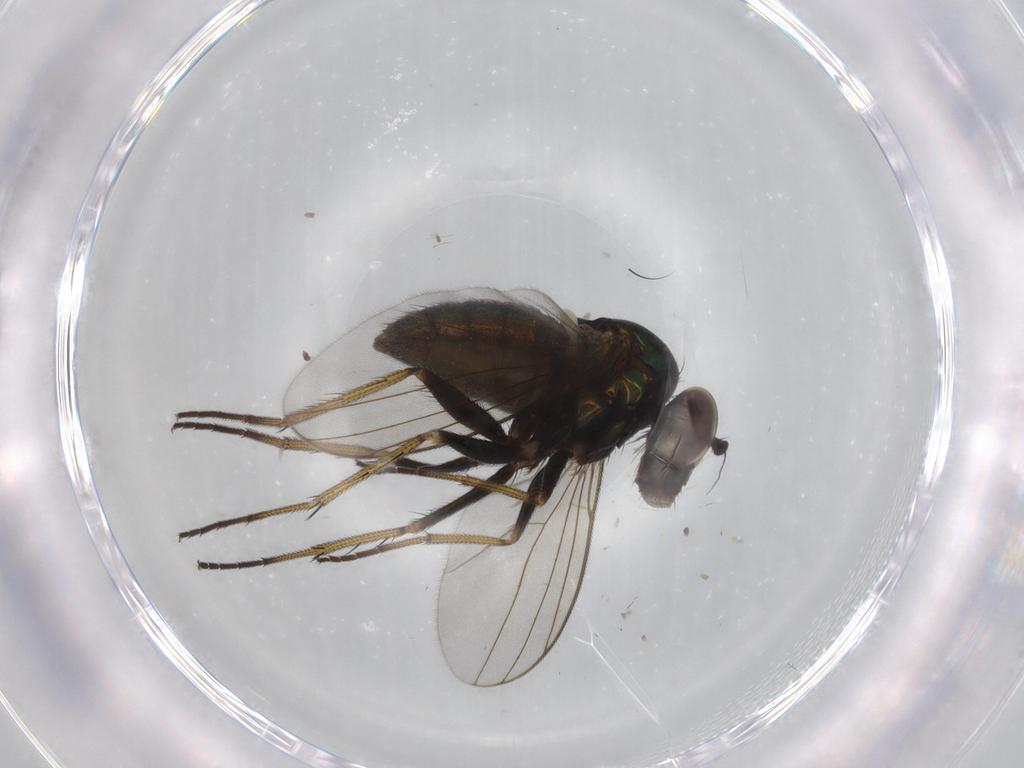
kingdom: Animalia
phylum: Arthropoda
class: Insecta
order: Diptera
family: Dolichopodidae
